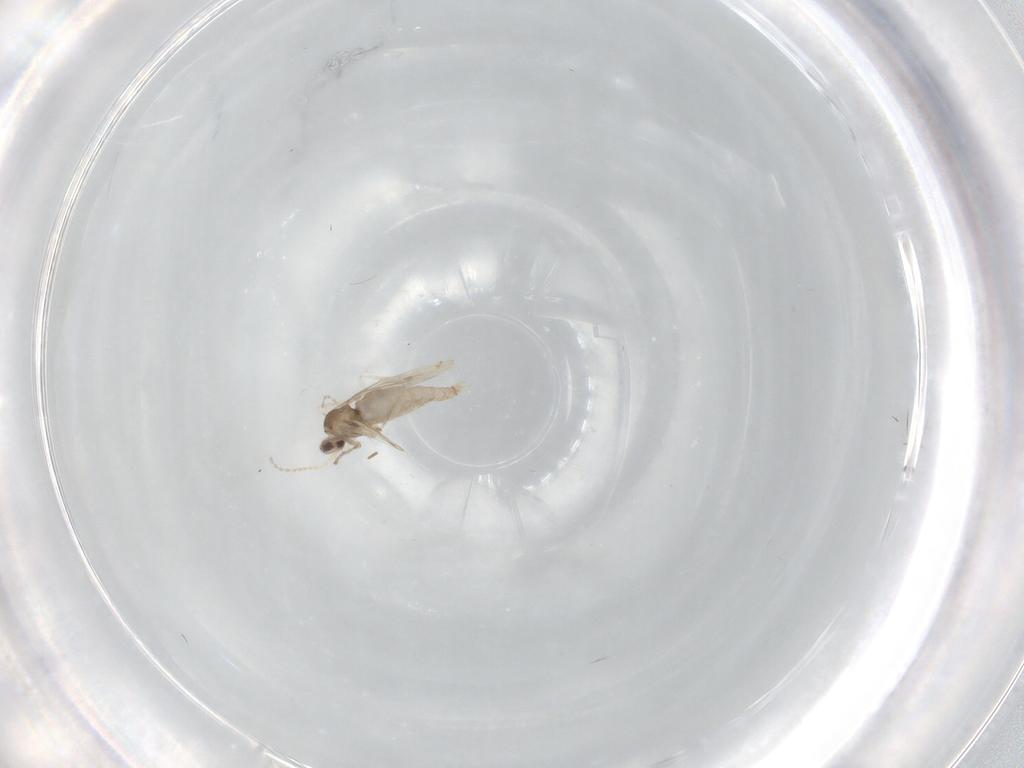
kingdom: Animalia
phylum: Arthropoda
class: Insecta
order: Diptera
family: Cecidomyiidae
